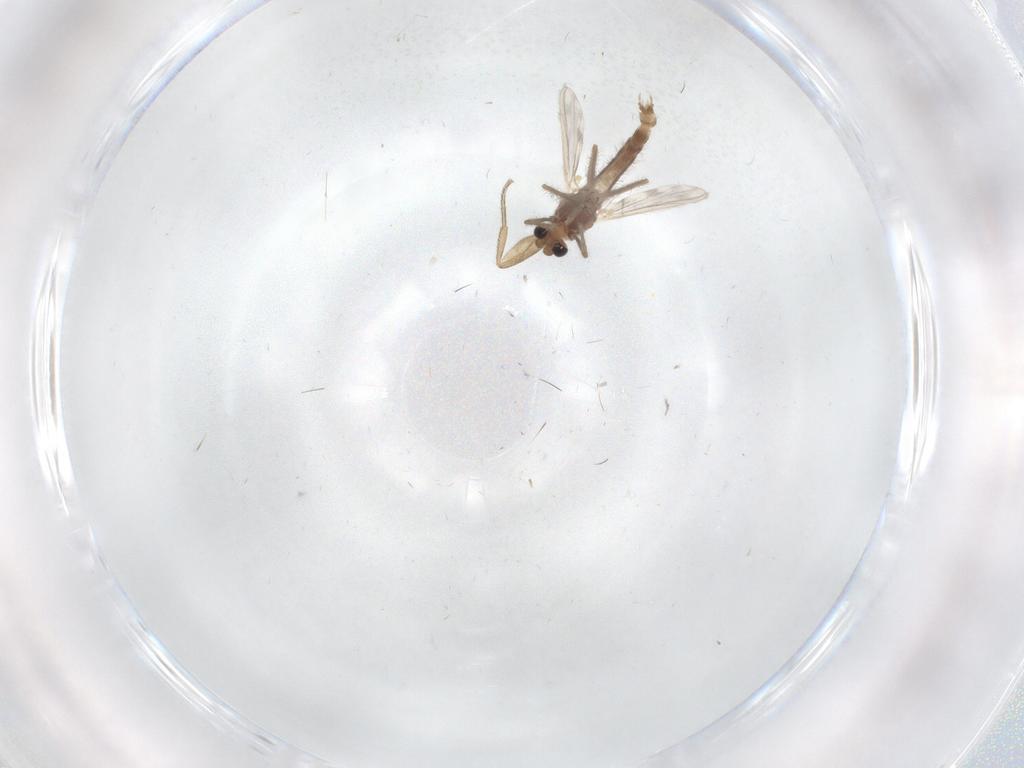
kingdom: Animalia
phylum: Arthropoda
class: Insecta
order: Diptera
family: Chironomidae
